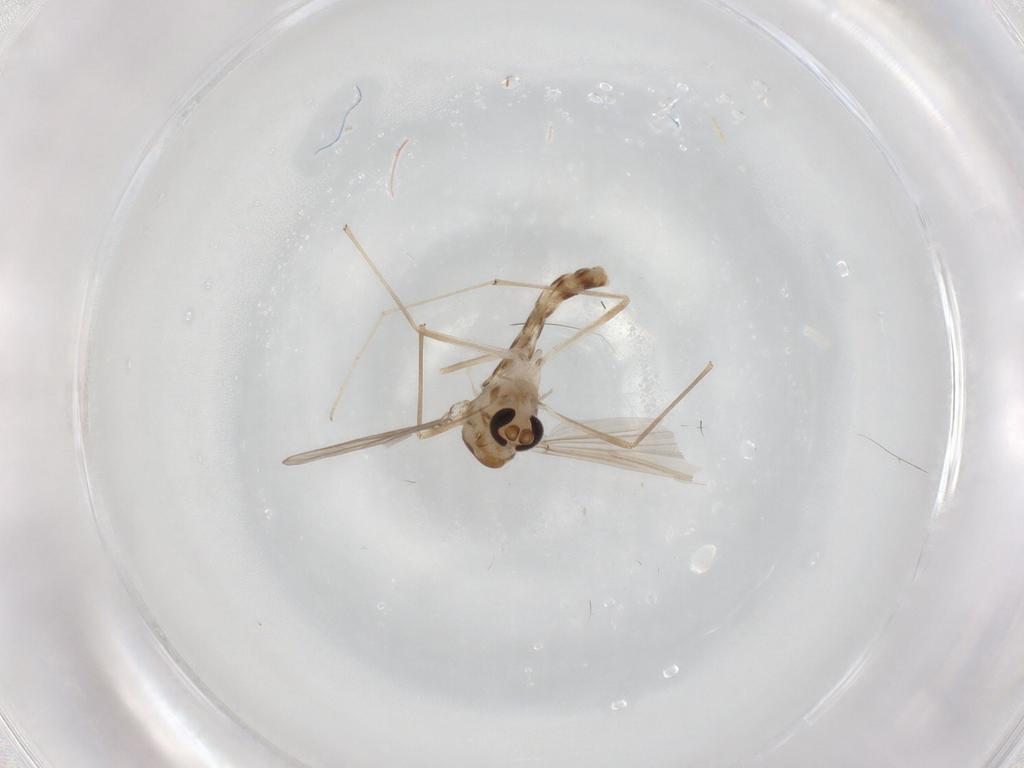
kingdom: Animalia
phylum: Arthropoda
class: Insecta
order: Diptera
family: Chironomidae
